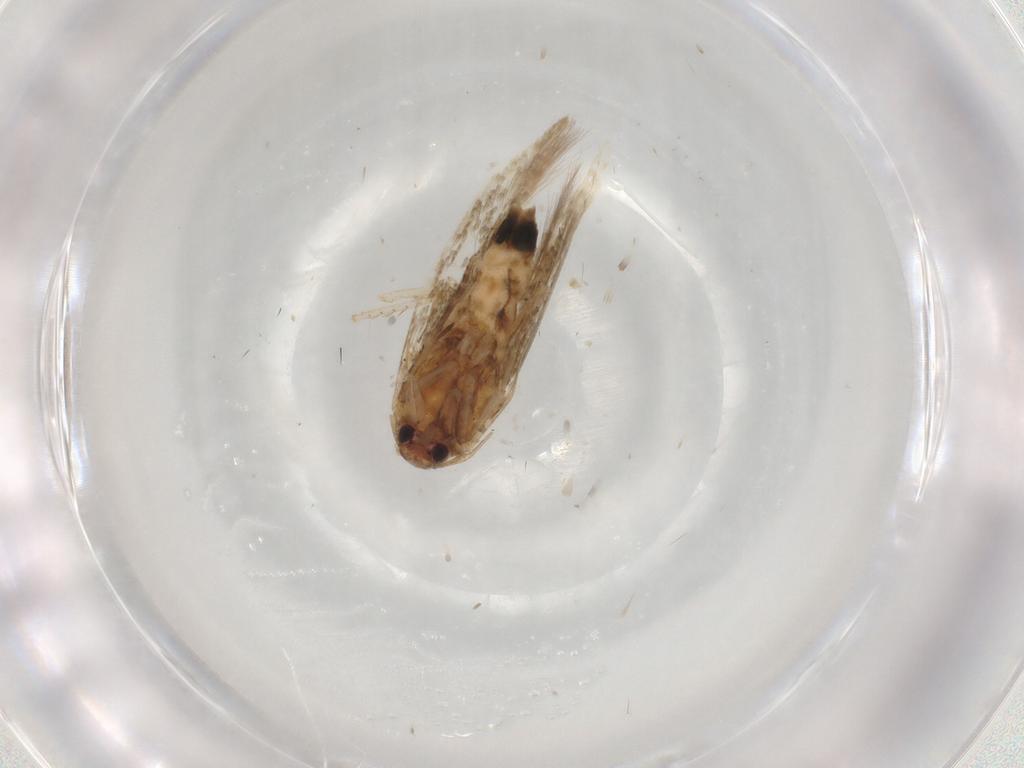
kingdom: Animalia
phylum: Arthropoda
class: Insecta
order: Lepidoptera
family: Cosmopterigidae
